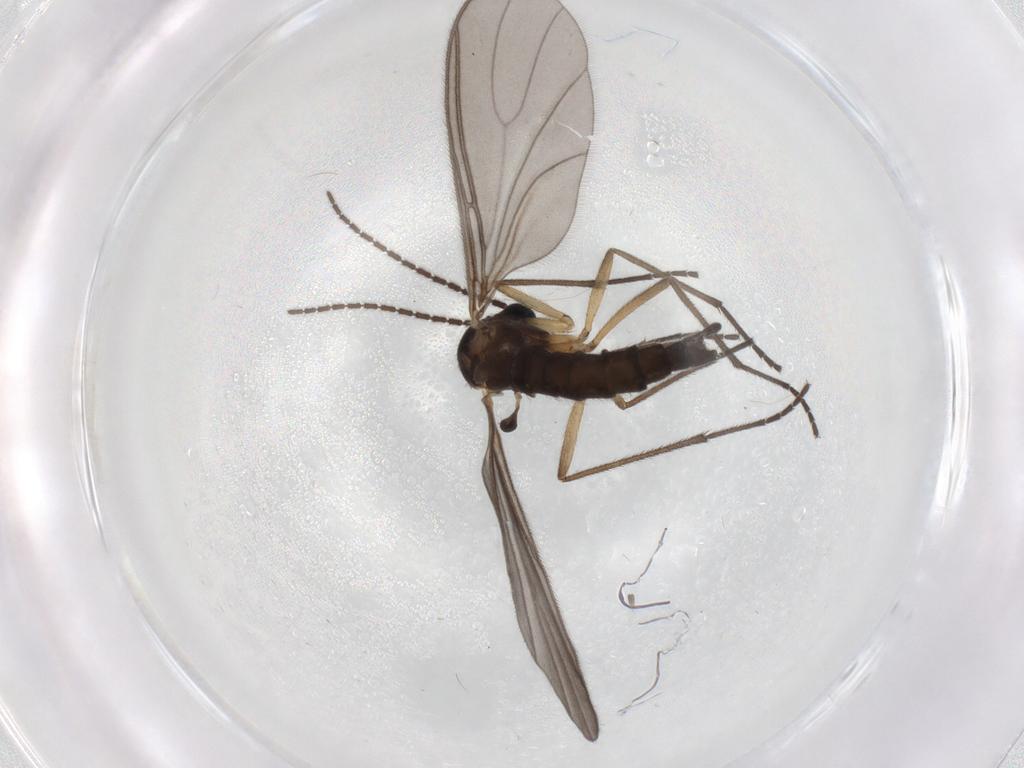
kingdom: Animalia
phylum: Arthropoda
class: Insecta
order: Diptera
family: Sciaridae
